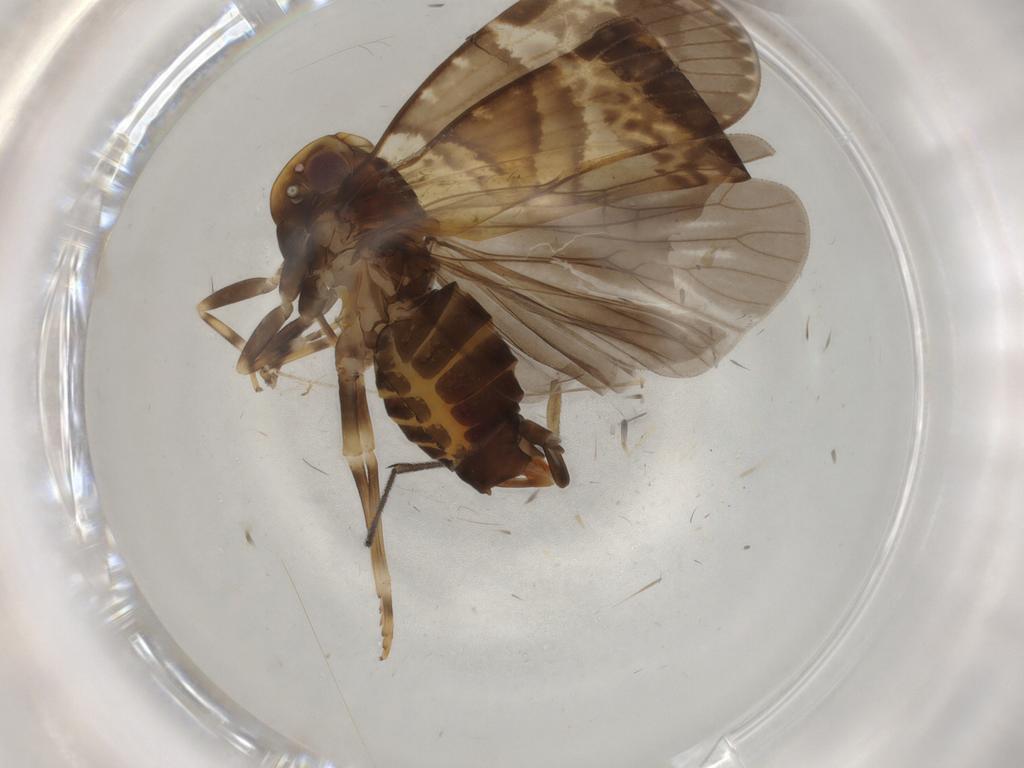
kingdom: Animalia
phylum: Arthropoda
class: Insecta
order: Hemiptera
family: Cixiidae
